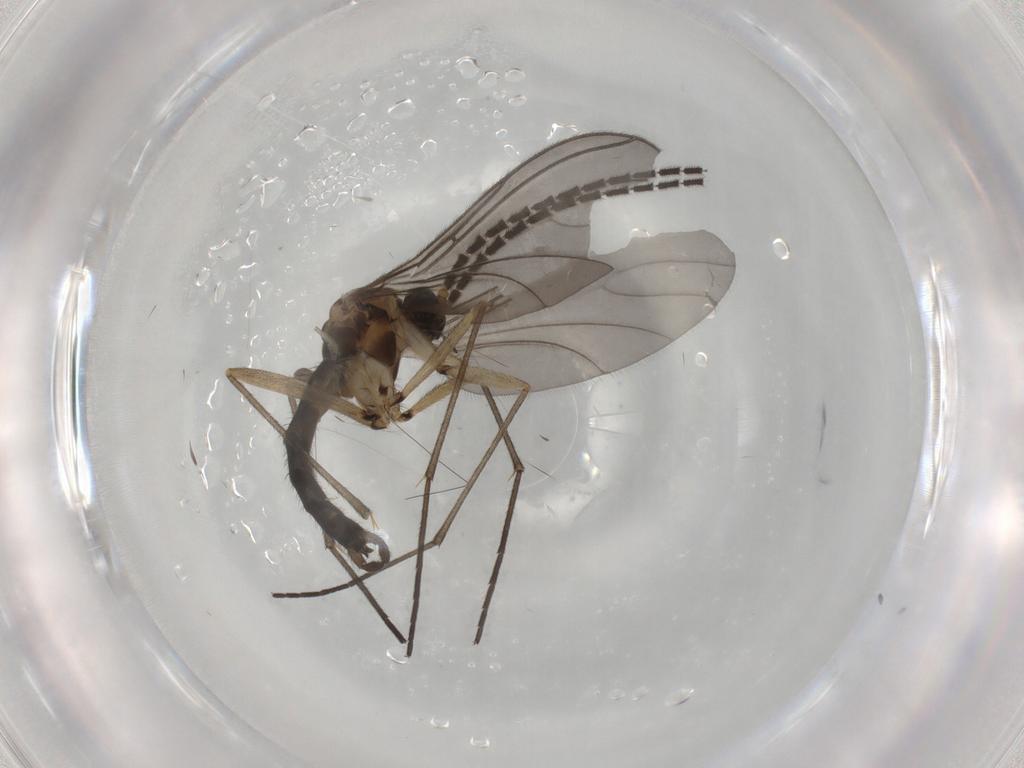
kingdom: Animalia
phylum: Arthropoda
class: Insecta
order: Diptera
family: Sciaridae
